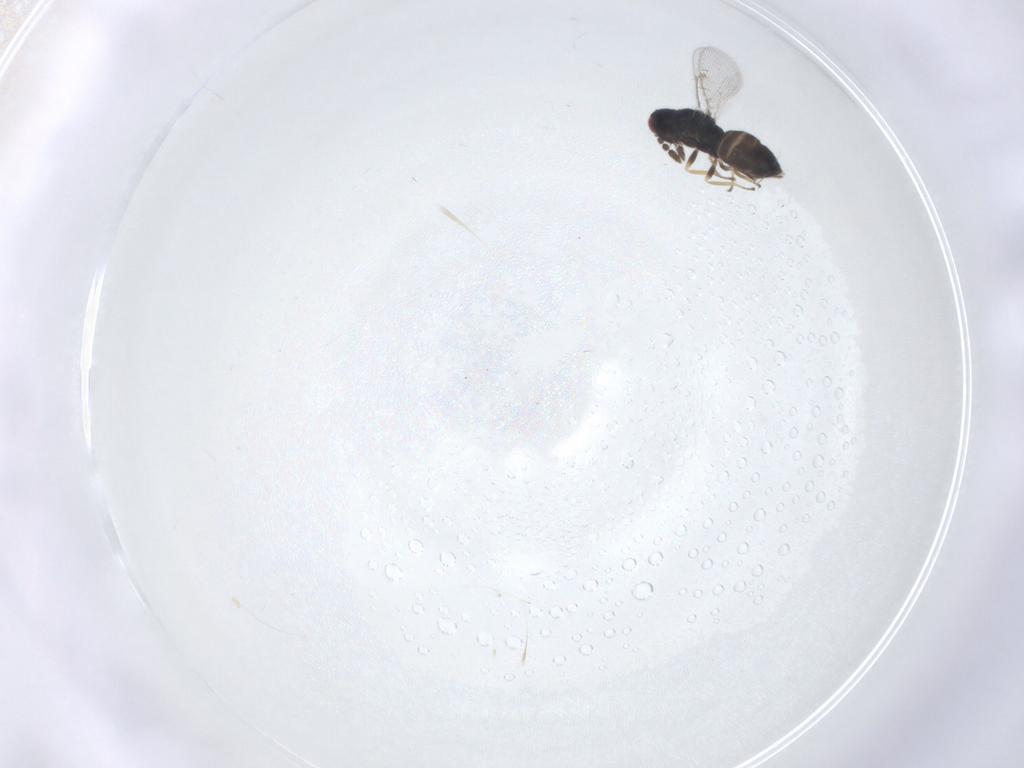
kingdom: Animalia
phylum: Arthropoda
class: Insecta
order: Hymenoptera
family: Eulophidae
